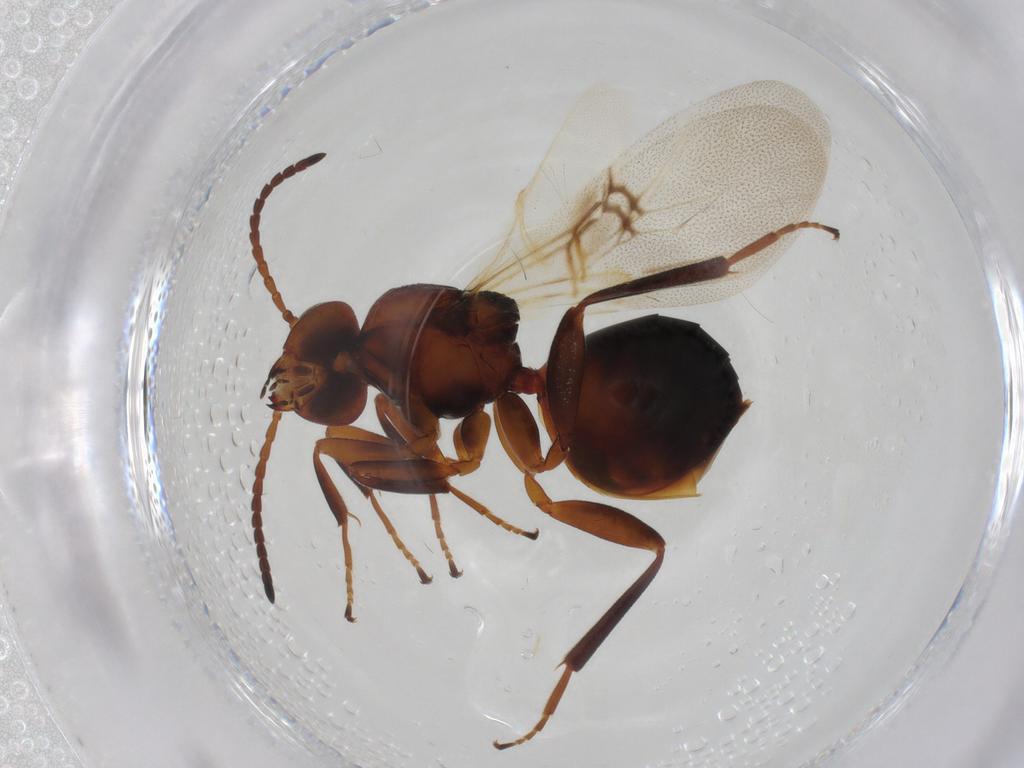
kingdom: Animalia
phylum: Arthropoda
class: Insecta
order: Hymenoptera
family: Cynipidae
